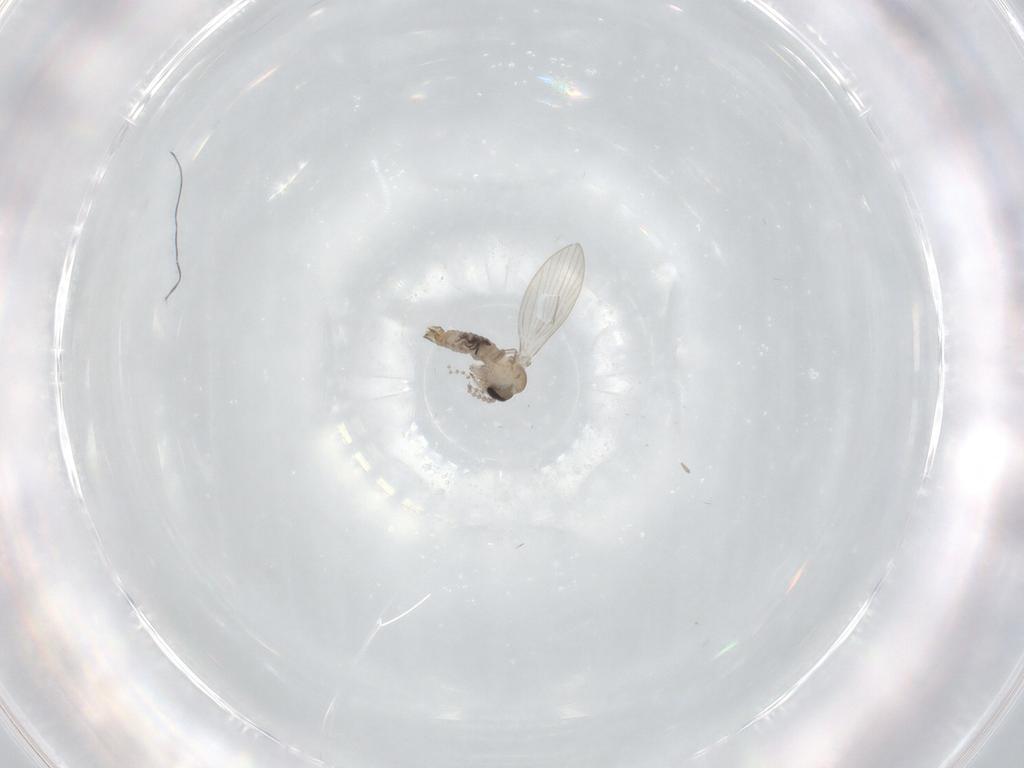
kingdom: Animalia
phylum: Arthropoda
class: Insecta
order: Diptera
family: Psychodidae
